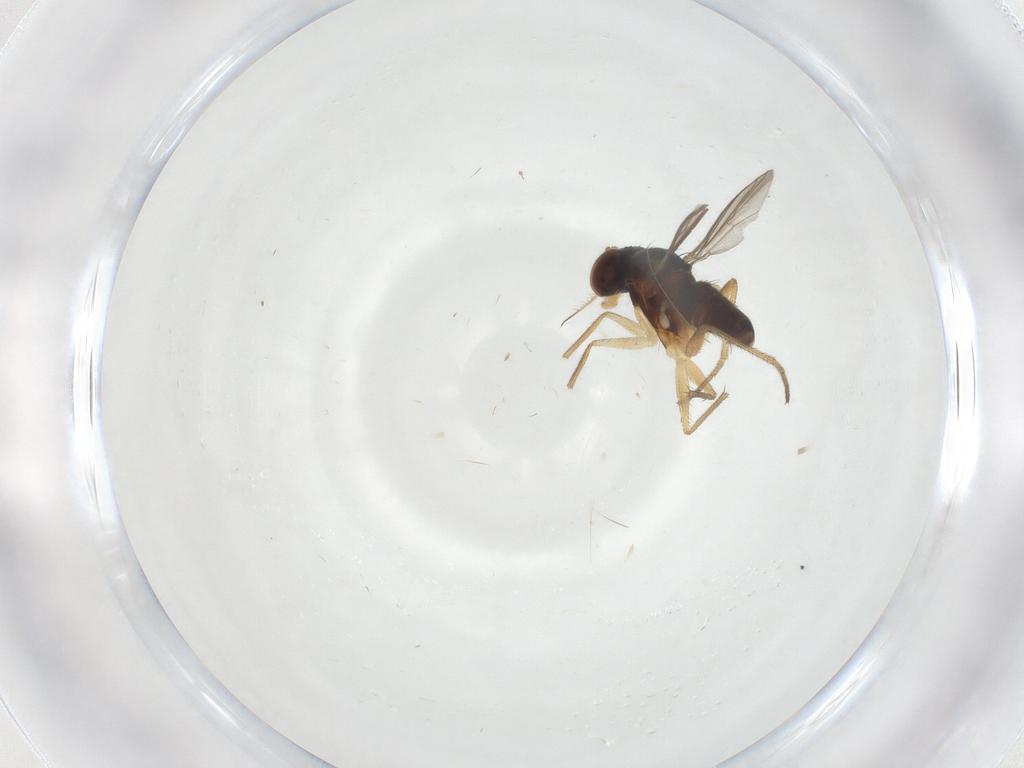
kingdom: Animalia
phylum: Arthropoda
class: Insecta
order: Diptera
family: Dolichopodidae
